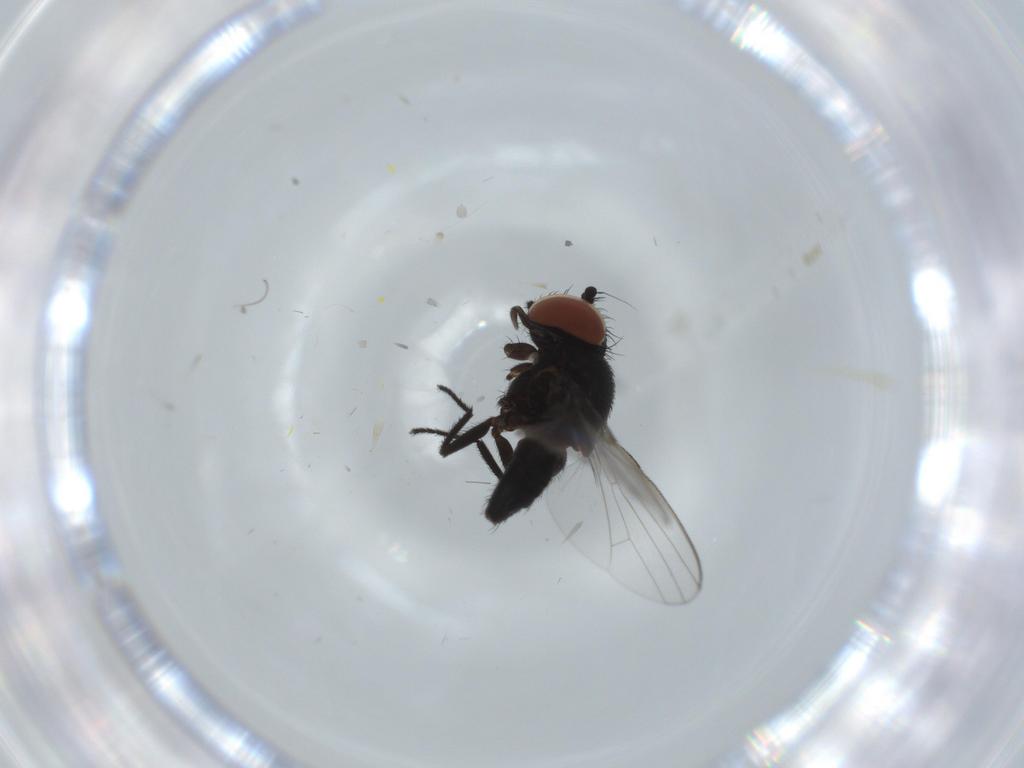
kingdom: Animalia
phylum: Arthropoda
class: Insecta
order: Diptera
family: Milichiidae
